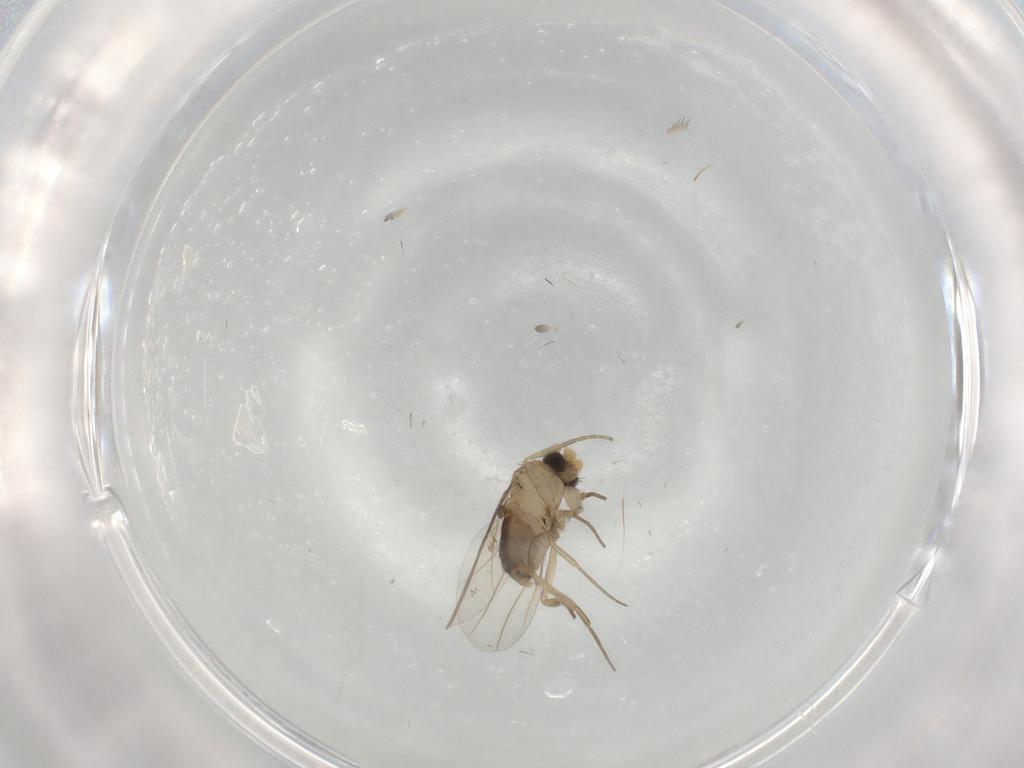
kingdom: Animalia
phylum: Arthropoda
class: Insecta
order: Diptera
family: Phoridae
